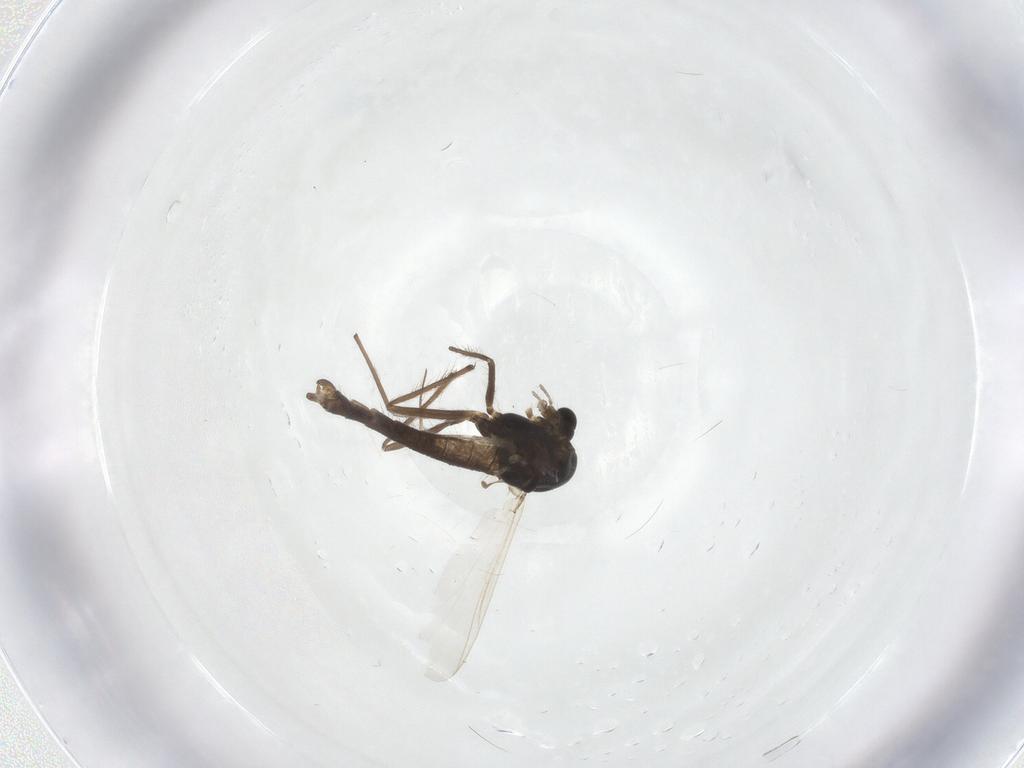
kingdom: Animalia
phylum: Arthropoda
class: Insecta
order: Diptera
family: Chironomidae
